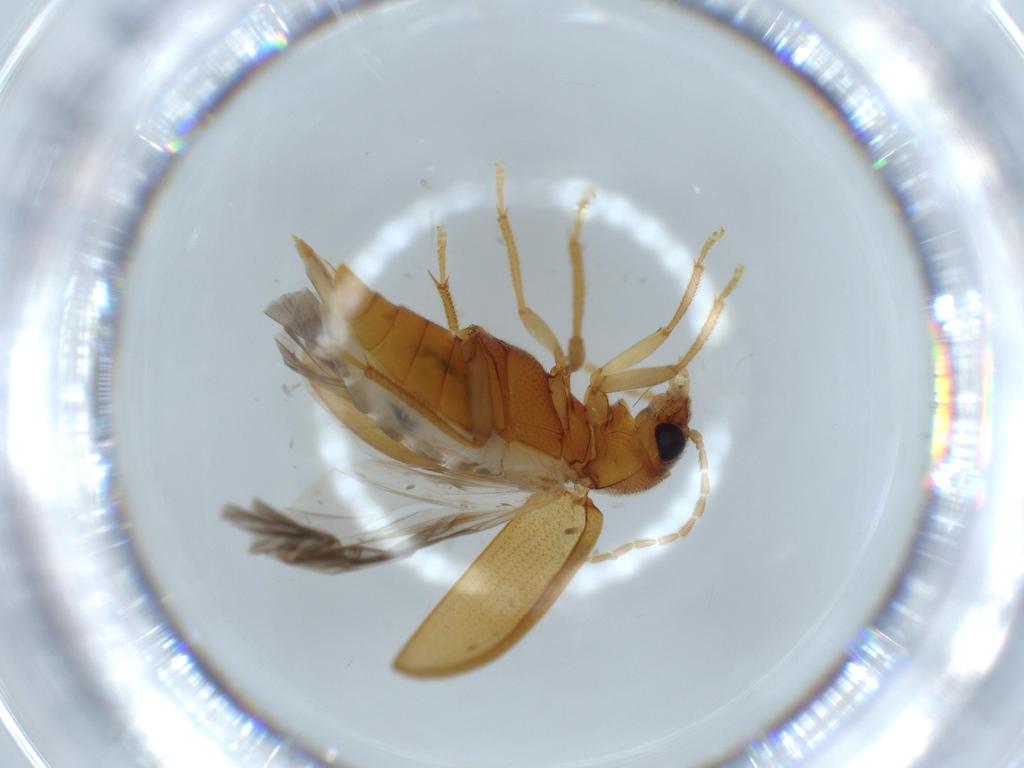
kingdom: Animalia
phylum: Arthropoda
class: Insecta
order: Coleoptera
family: Ptilodactylidae
